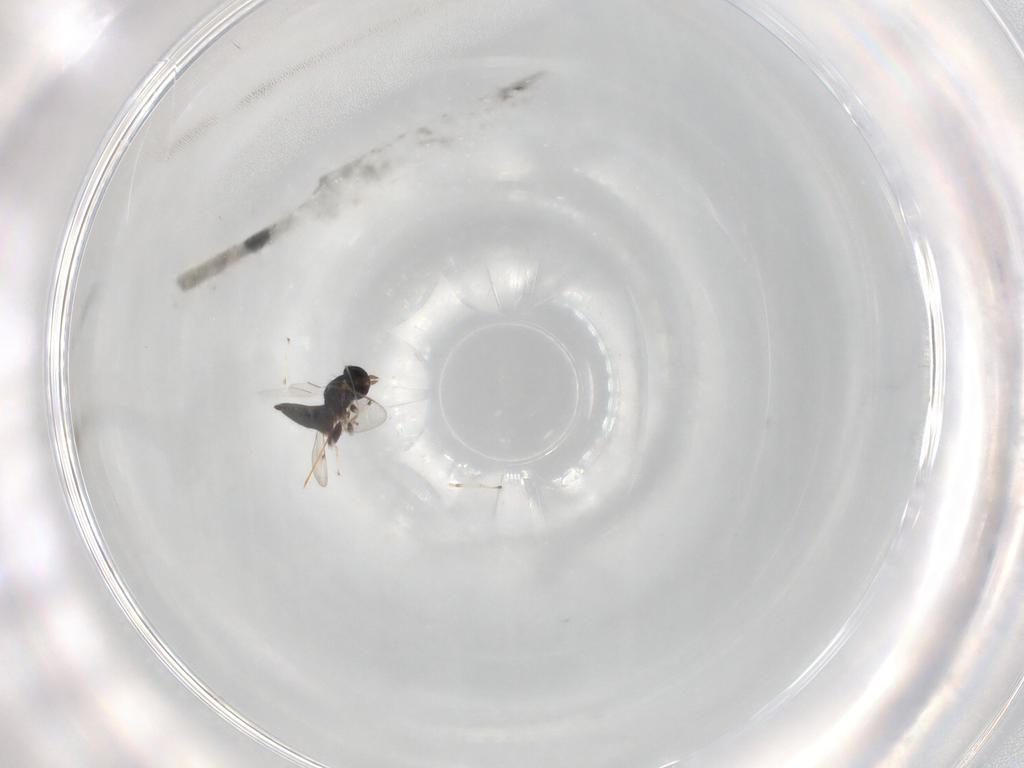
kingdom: Animalia
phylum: Arthropoda
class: Insecta
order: Hymenoptera
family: Eulophidae
